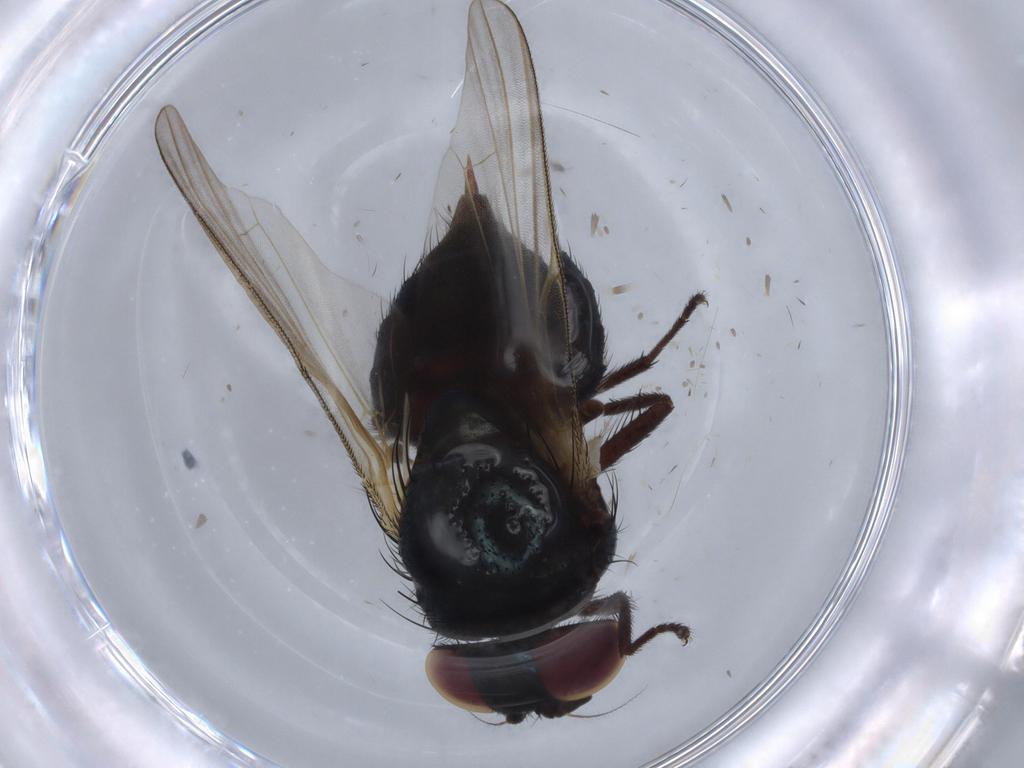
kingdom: Animalia
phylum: Arthropoda
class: Insecta
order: Diptera
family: Lonchaeidae
